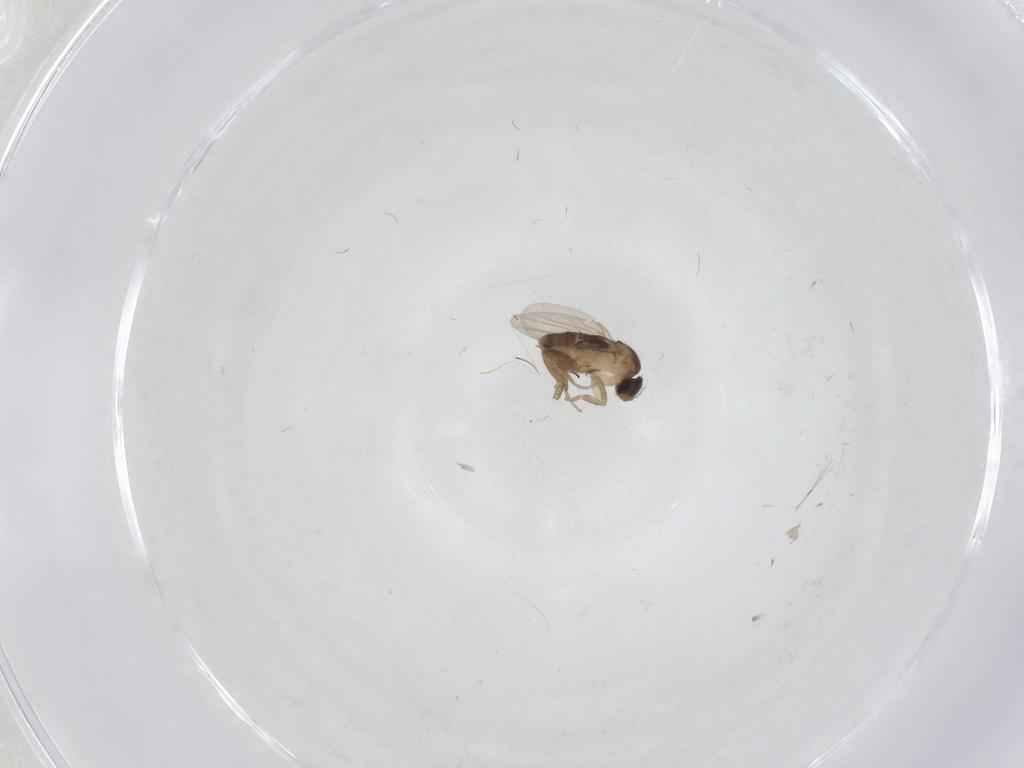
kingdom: Animalia
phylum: Arthropoda
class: Insecta
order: Diptera
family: Phoridae
